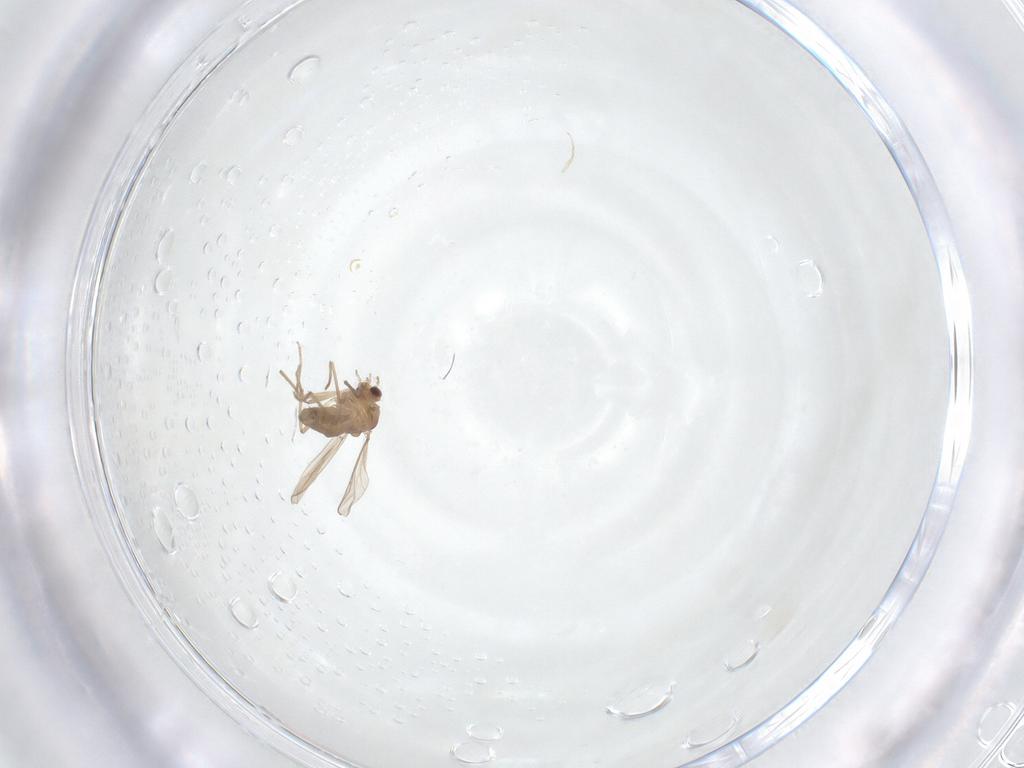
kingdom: Animalia
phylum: Arthropoda
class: Insecta
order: Diptera
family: Chironomidae
